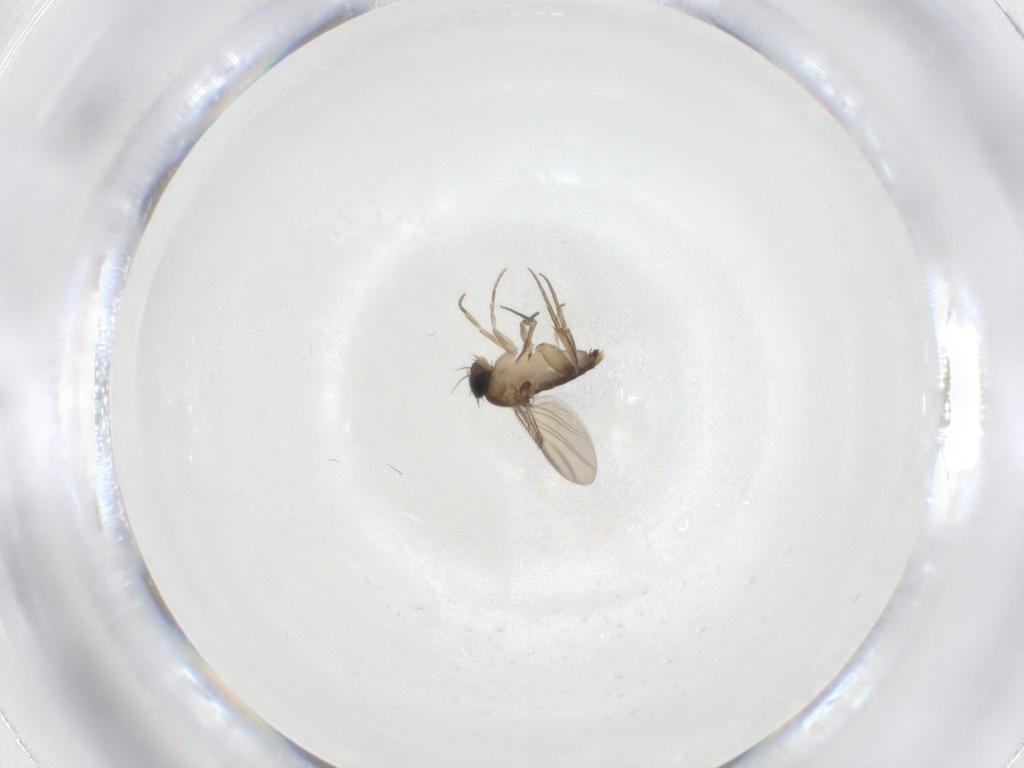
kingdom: Animalia
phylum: Arthropoda
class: Insecta
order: Diptera
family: Phoridae
